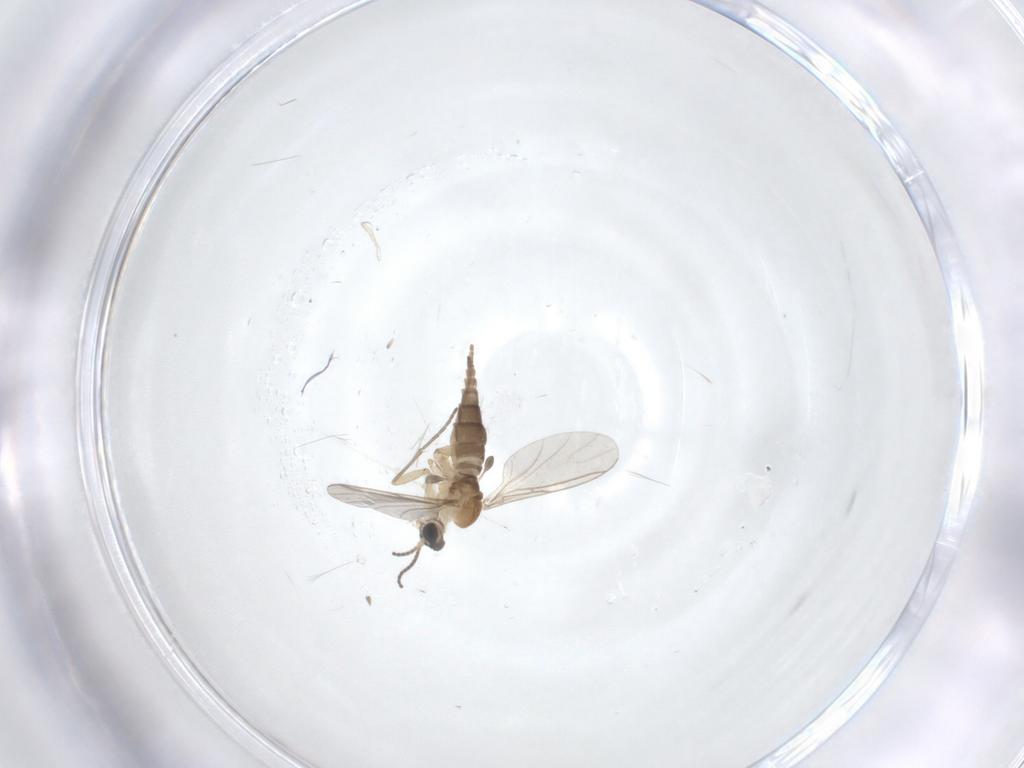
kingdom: Animalia
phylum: Arthropoda
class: Insecta
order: Diptera
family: Sciaridae
